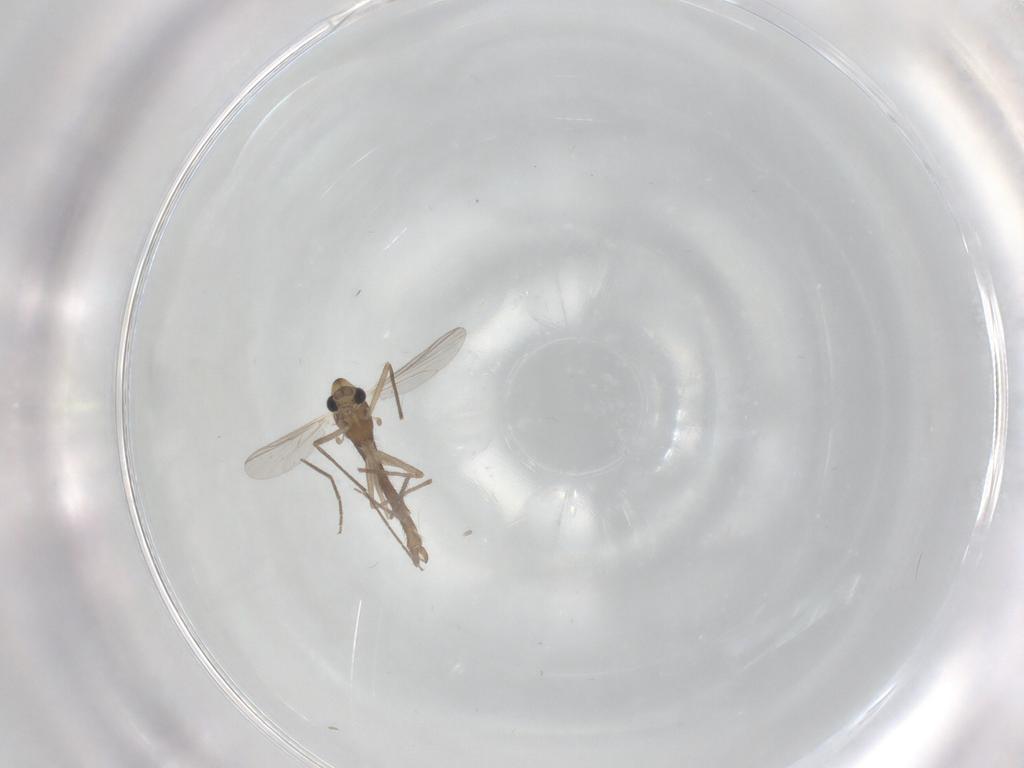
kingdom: Animalia
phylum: Arthropoda
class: Insecta
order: Diptera
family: Chironomidae
